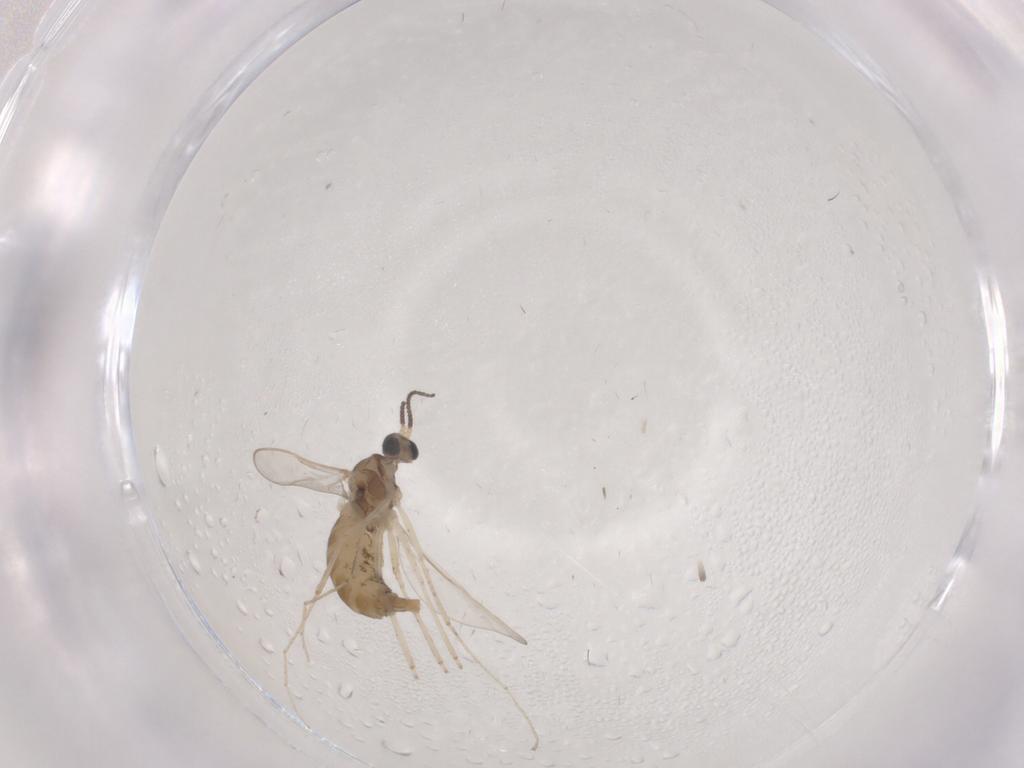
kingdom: Animalia
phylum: Arthropoda
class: Insecta
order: Diptera
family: Cecidomyiidae
